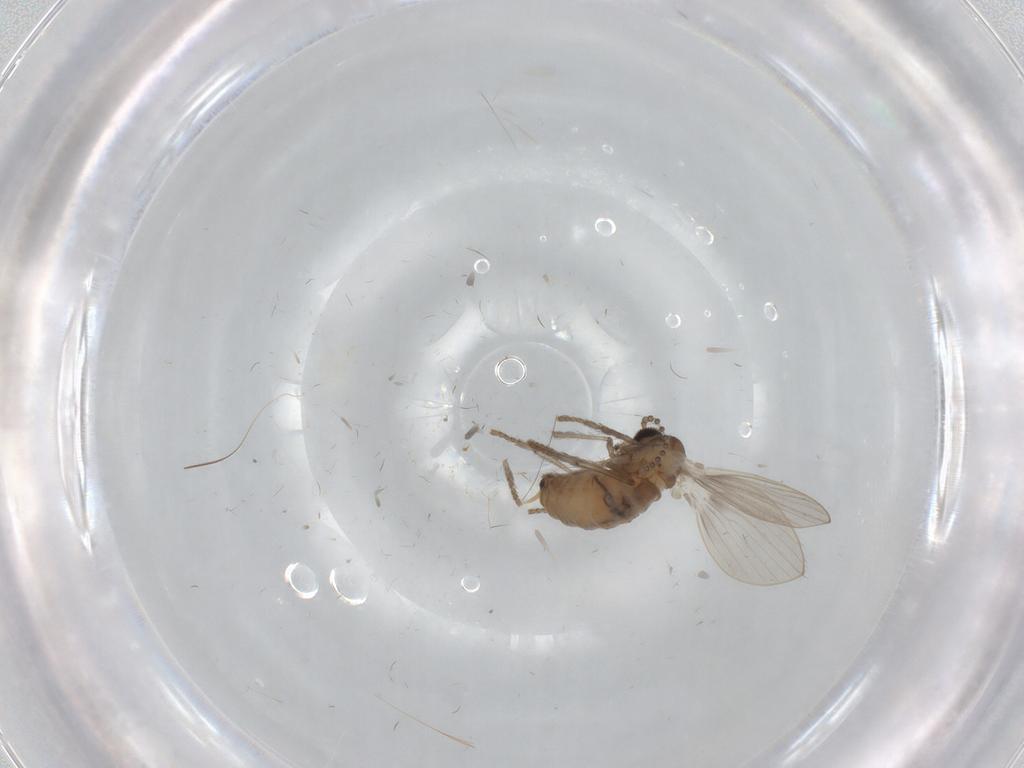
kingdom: Animalia
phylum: Arthropoda
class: Insecta
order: Diptera
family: Psychodidae
